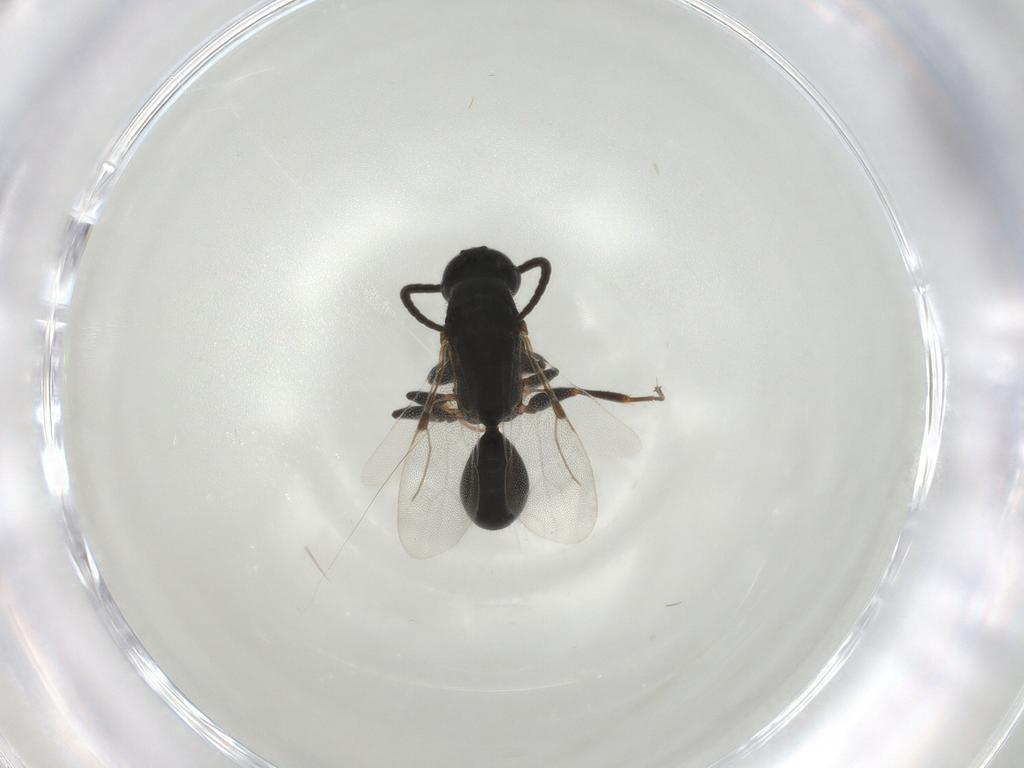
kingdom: Animalia
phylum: Arthropoda
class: Insecta
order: Hymenoptera
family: Bethylidae
